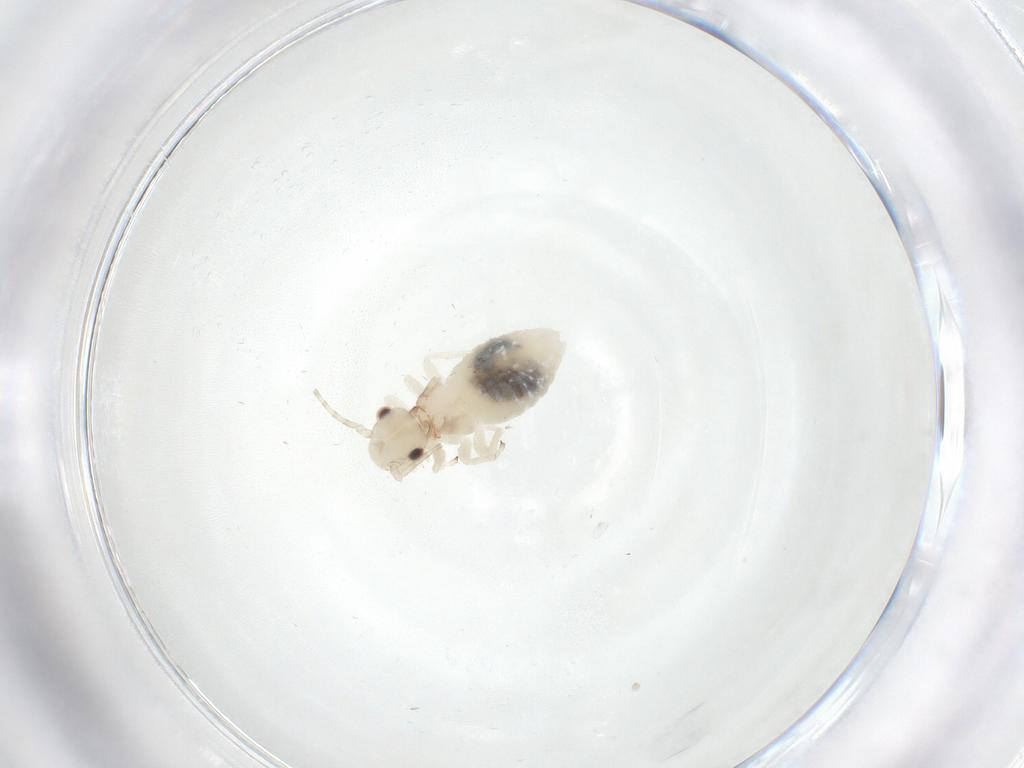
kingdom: Animalia
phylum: Arthropoda
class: Insecta
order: Psocodea
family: Amphipsocidae
